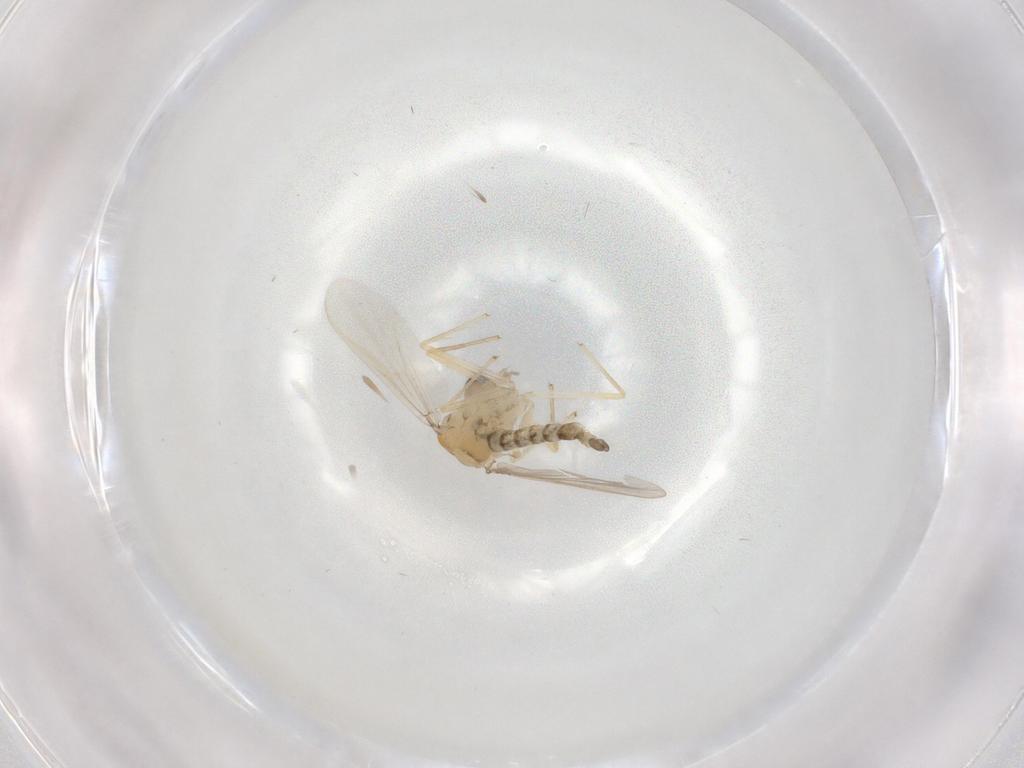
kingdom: Animalia
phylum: Arthropoda
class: Insecta
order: Diptera
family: Chironomidae
